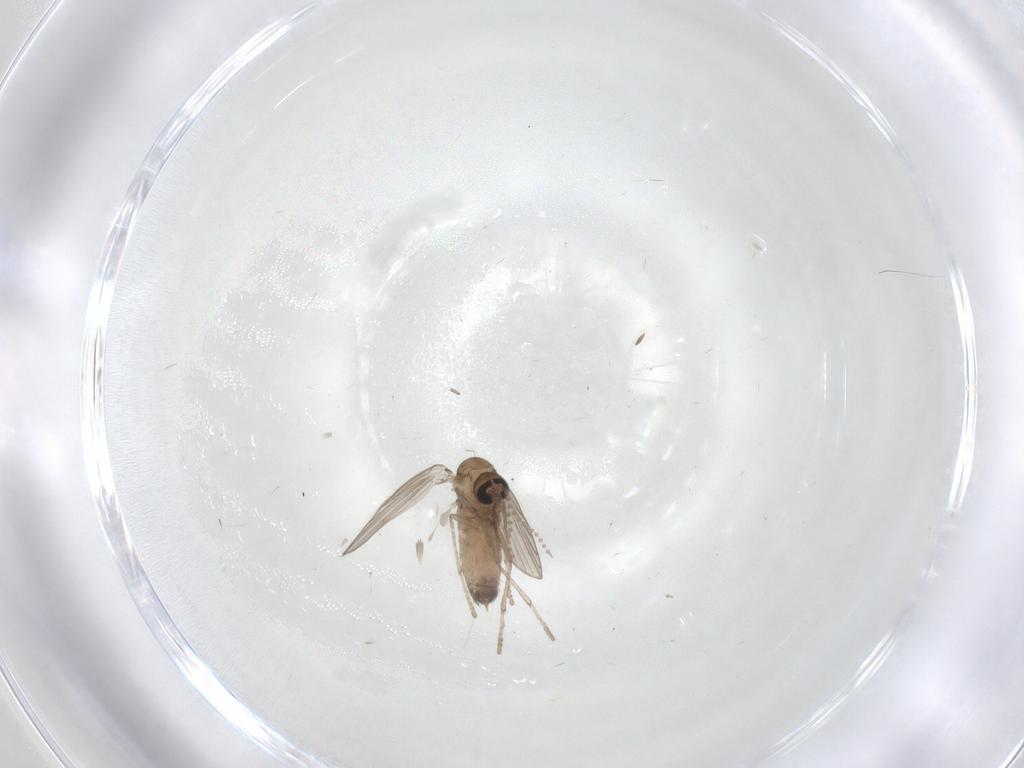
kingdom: Animalia
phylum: Arthropoda
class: Insecta
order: Diptera
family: Psychodidae
